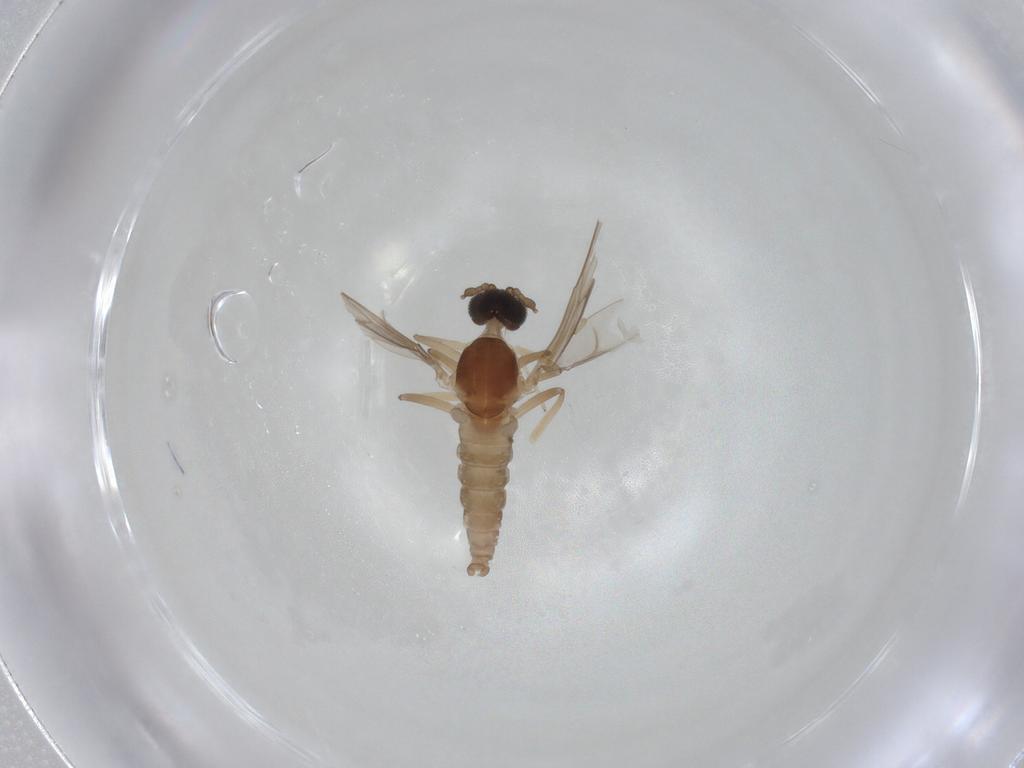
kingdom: Animalia
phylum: Arthropoda
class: Insecta
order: Diptera
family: Cecidomyiidae
